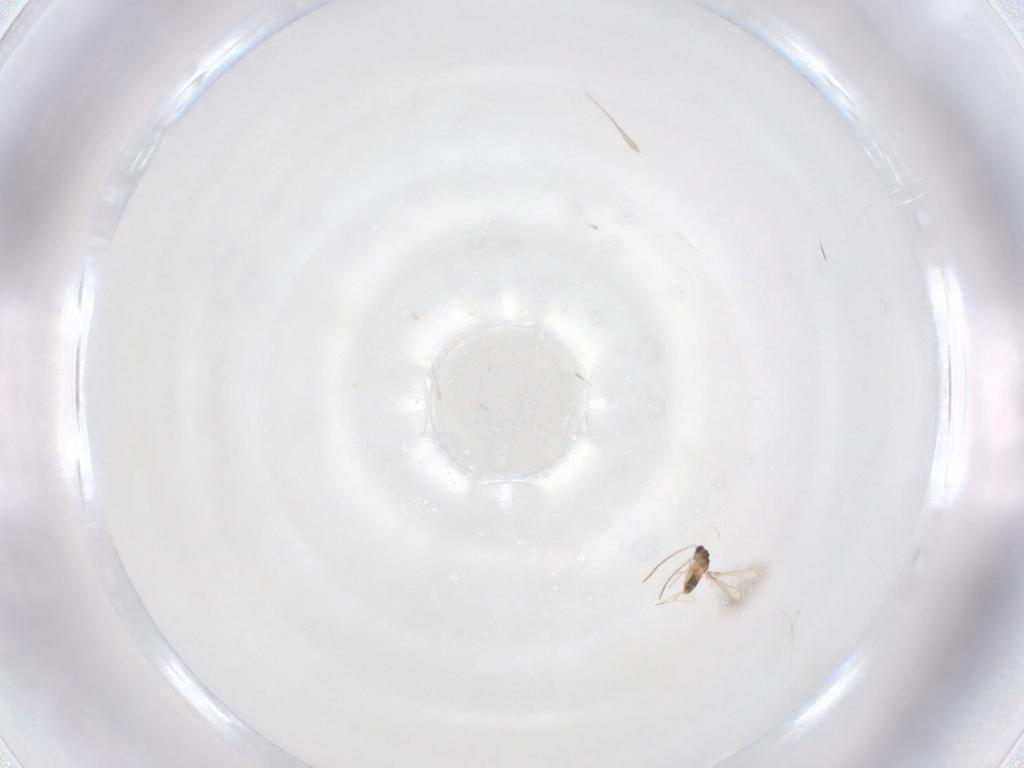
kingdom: Animalia
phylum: Arthropoda
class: Insecta
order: Hymenoptera
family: Mymaridae
